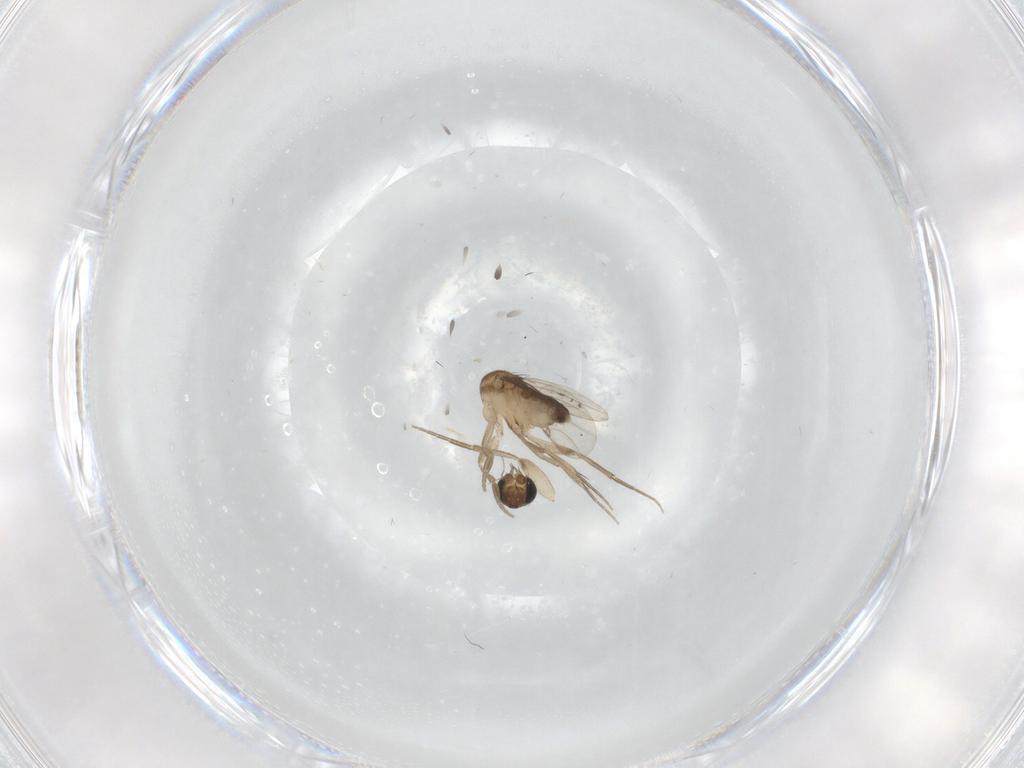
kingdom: Animalia
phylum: Arthropoda
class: Insecta
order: Diptera
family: Phoridae
